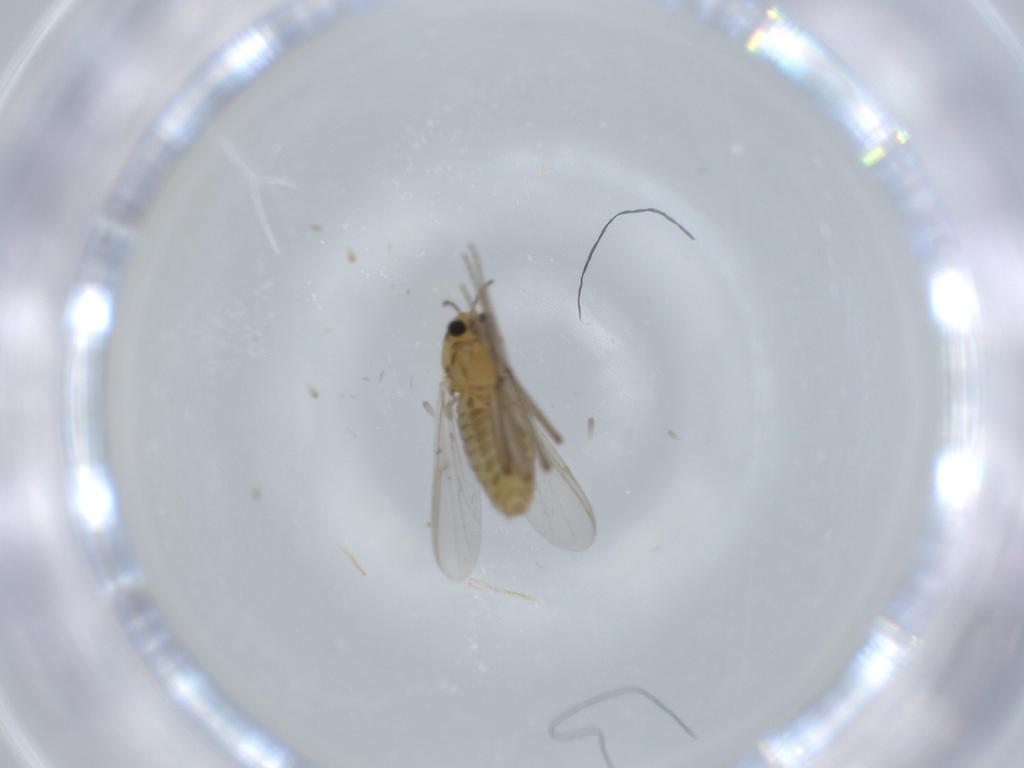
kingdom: Animalia
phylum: Arthropoda
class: Insecta
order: Diptera
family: Chironomidae
